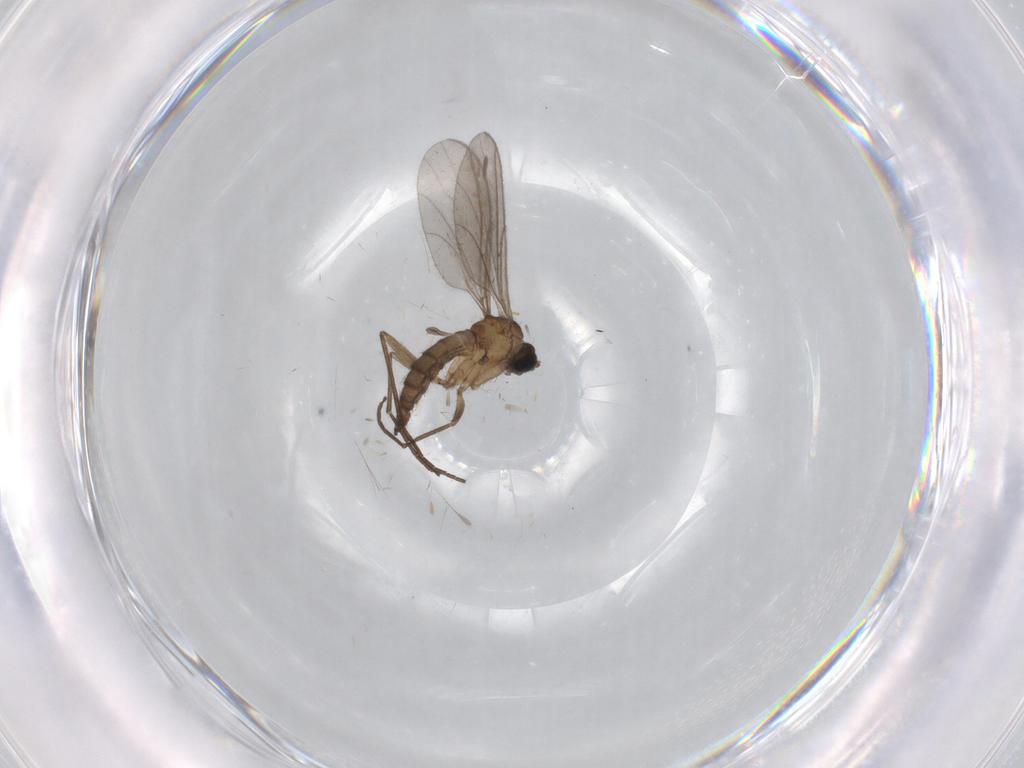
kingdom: Animalia
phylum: Arthropoda
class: Insecta
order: Diptera
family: Sciaridae
